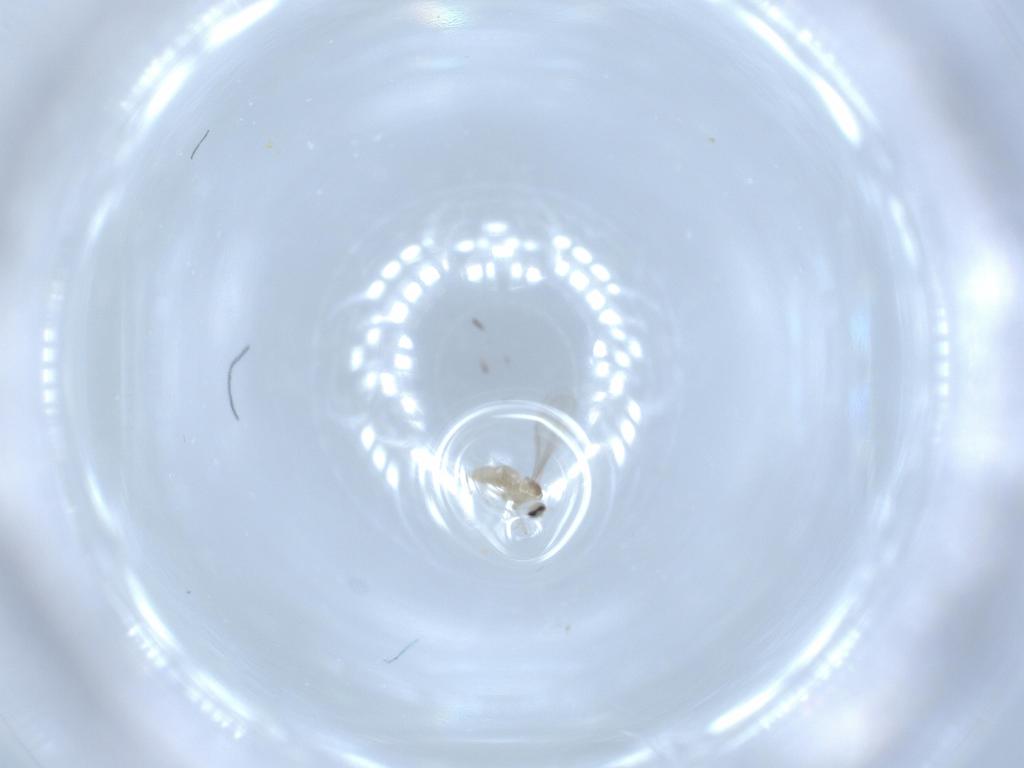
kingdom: Animalia
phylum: Arthropoda
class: Insecta
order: Diptera
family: Cecidomyiidae
